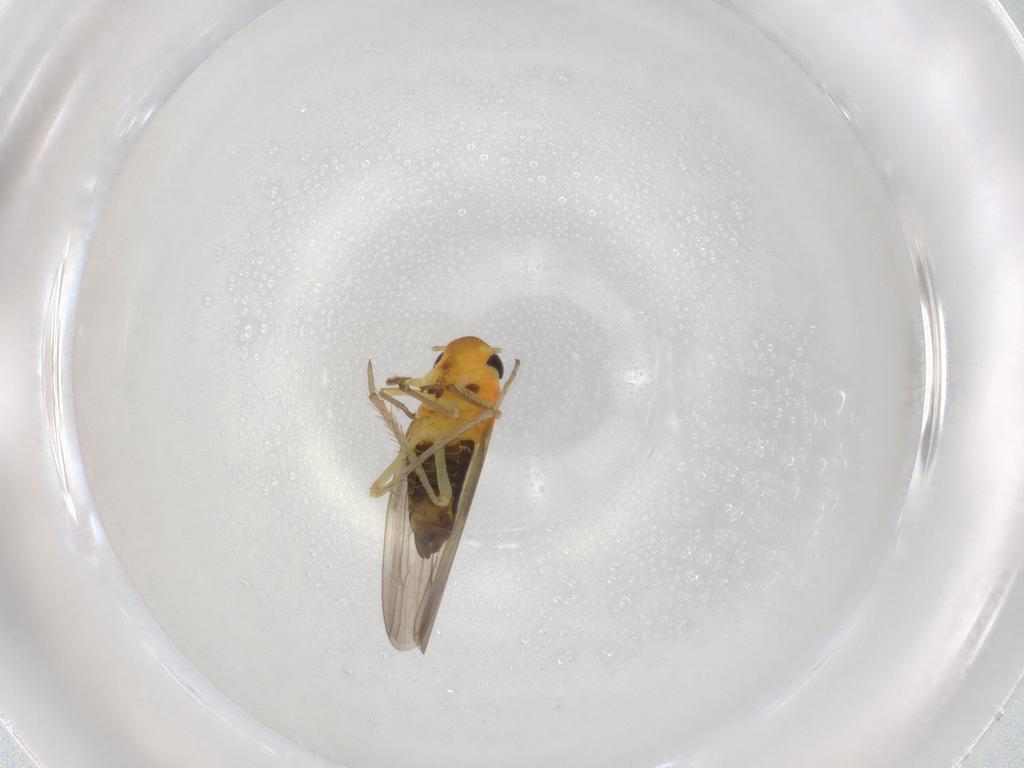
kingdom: Animalia
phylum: Arthropoda
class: Insecta
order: Hemiptera
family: Cicadellidae
